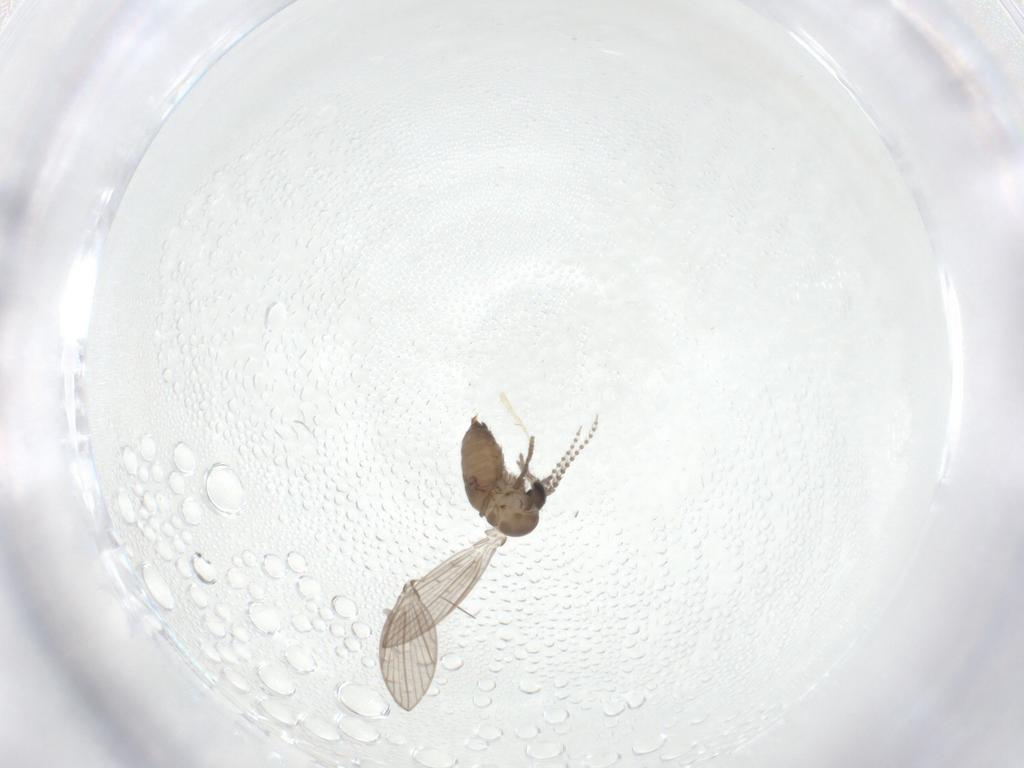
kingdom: Animalia
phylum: Arthropoda
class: Insecta
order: Diptera
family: Psychodidae
